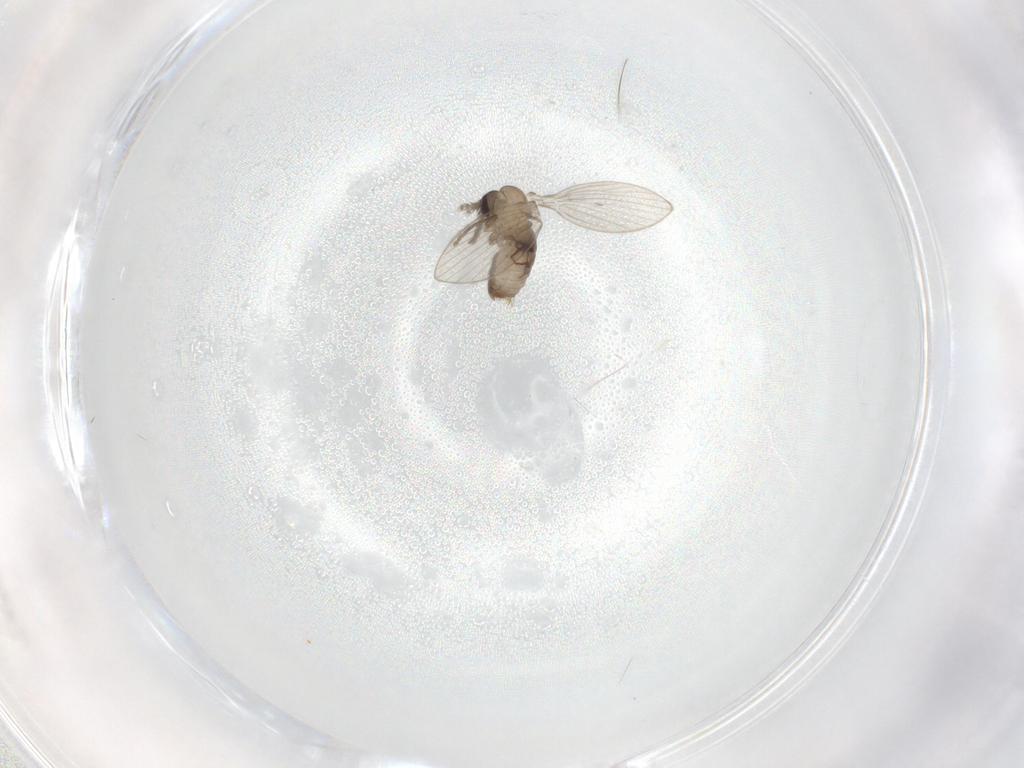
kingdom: Animalia
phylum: Arthropoda
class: Insecta
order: Diptera
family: Psychodidae
